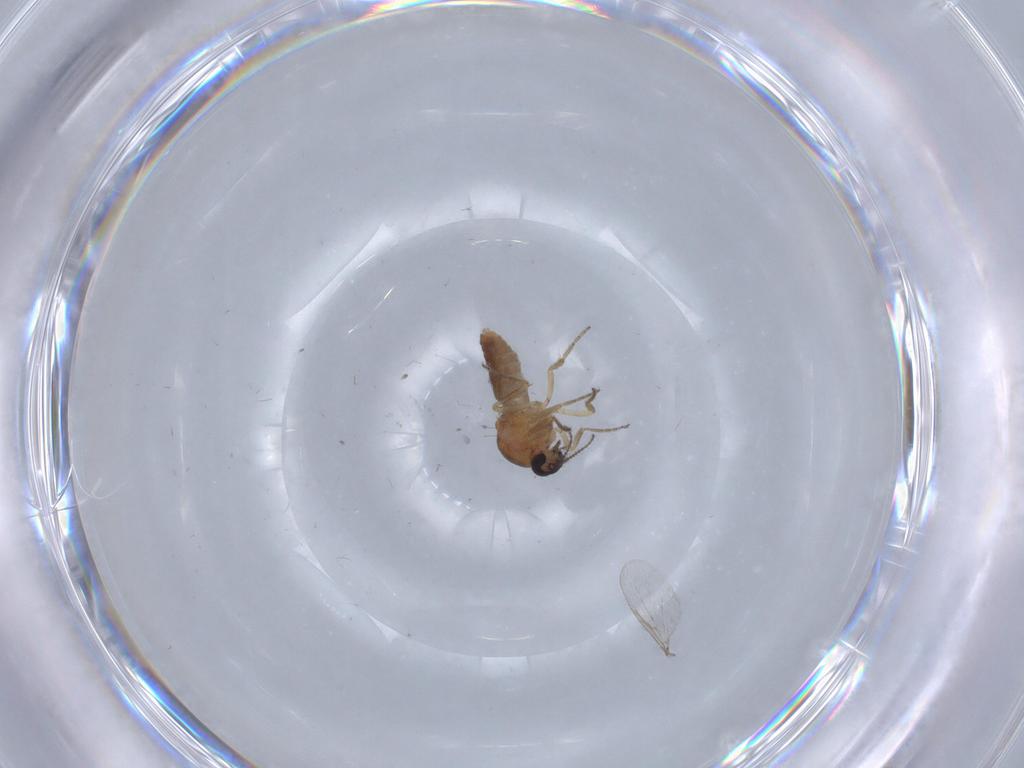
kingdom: Animalia
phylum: Arthropoda
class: Insecta
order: Diptera
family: Ceratopogonidae
